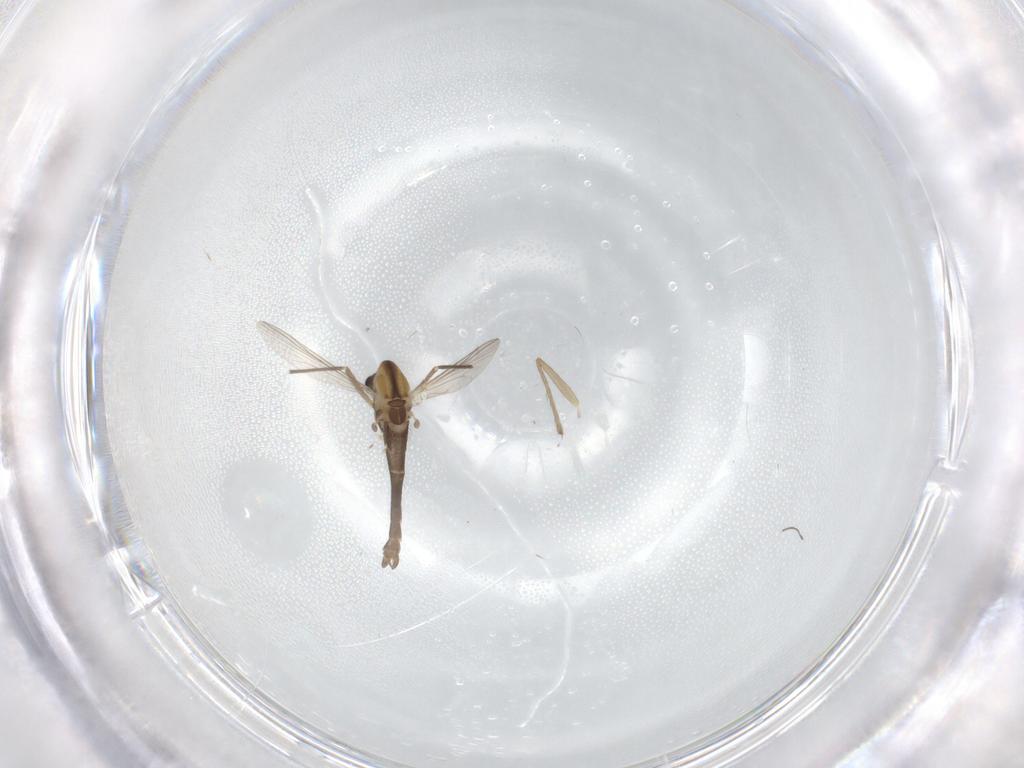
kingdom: Animalia
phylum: Arthropoda
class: Insecta
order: Diptera
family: Chironomidae
